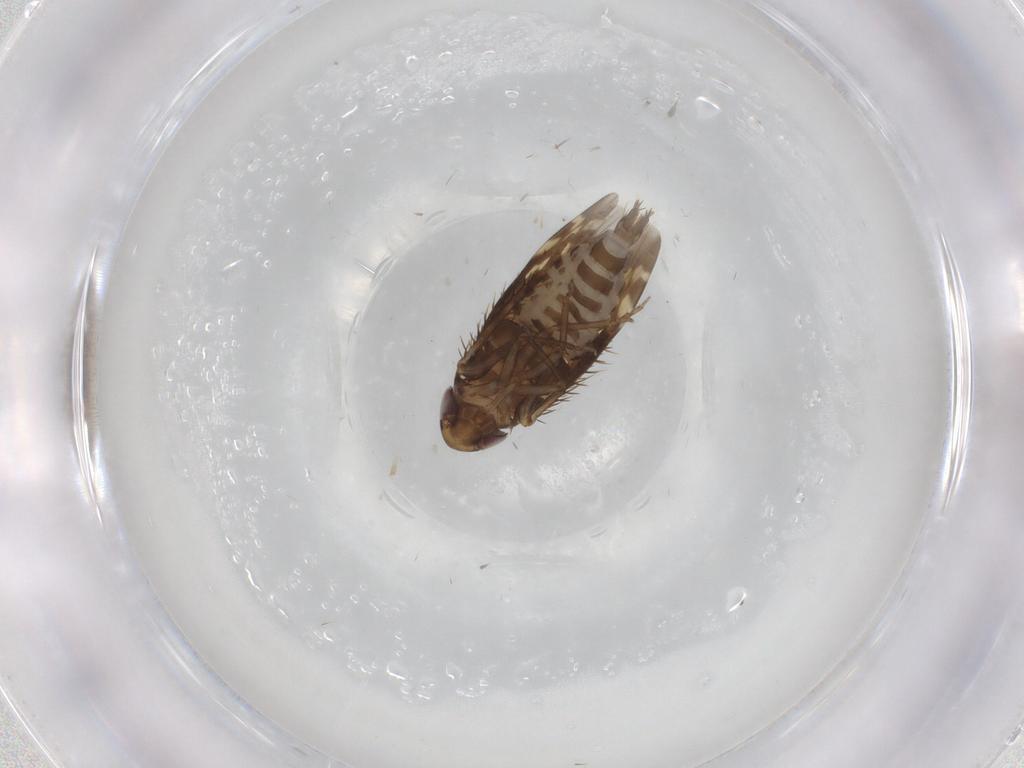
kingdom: Animalia
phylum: Arthropoda
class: Insecta
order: Hemiptera
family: Cicadellidae
